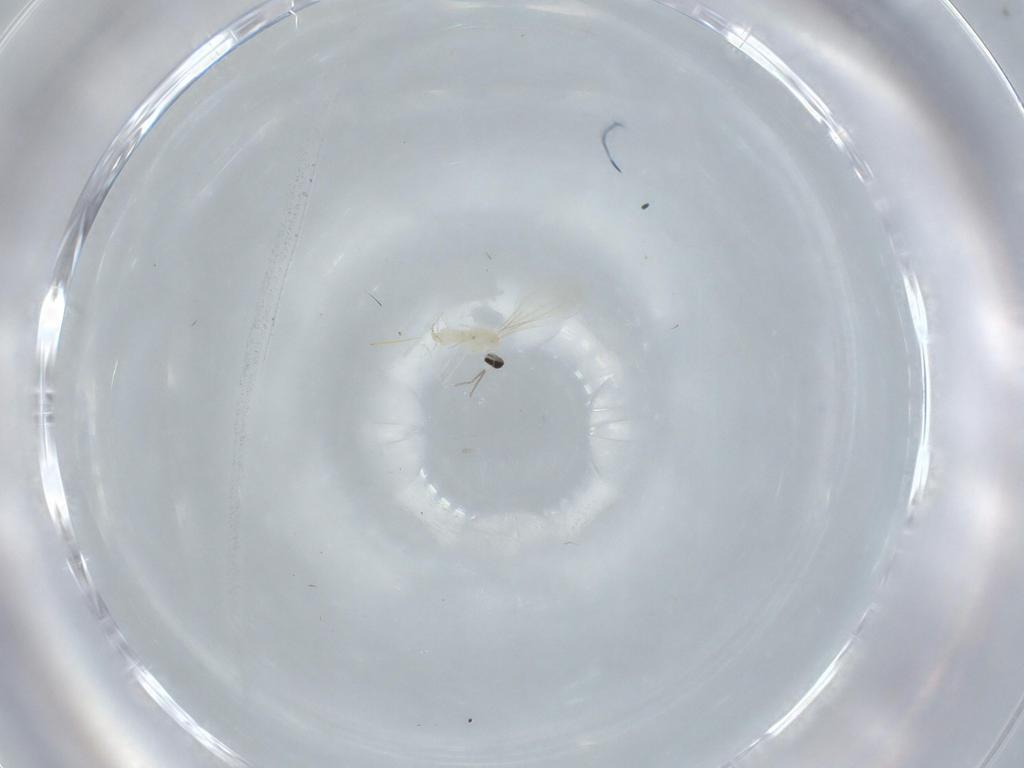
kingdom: Animalia
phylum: Arthropoda
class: Insecta
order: Diptera
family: Cecidomyiidae
